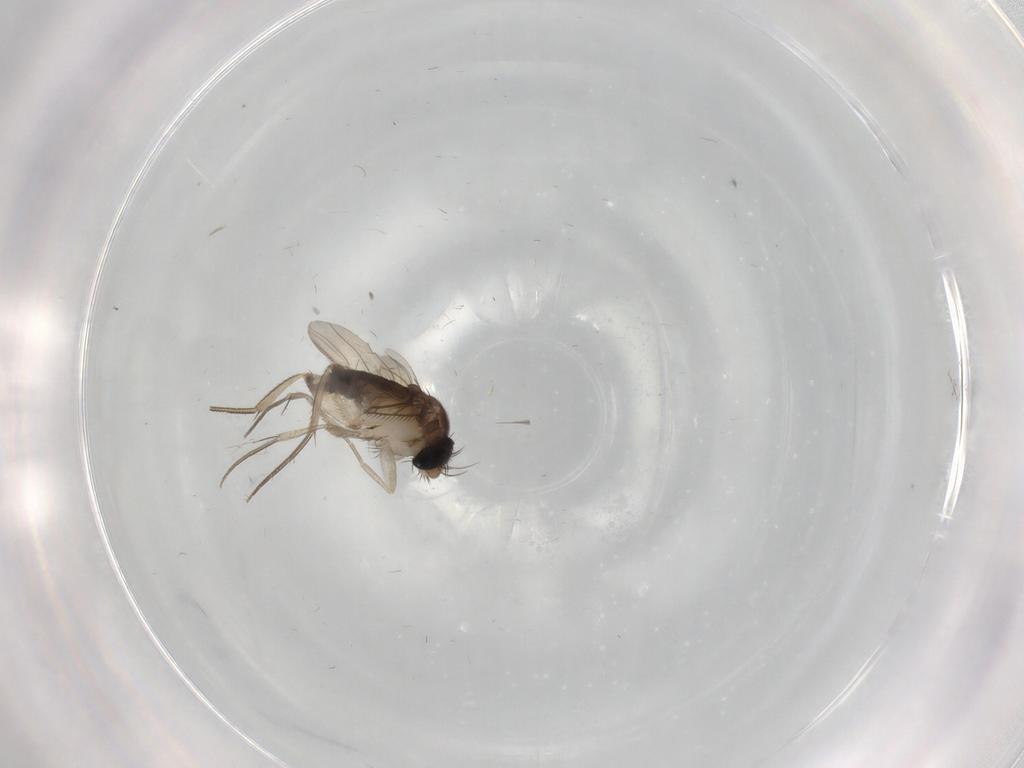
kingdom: Animalia
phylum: Arthropoda
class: Insecta
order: Diptera
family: Phoridae
